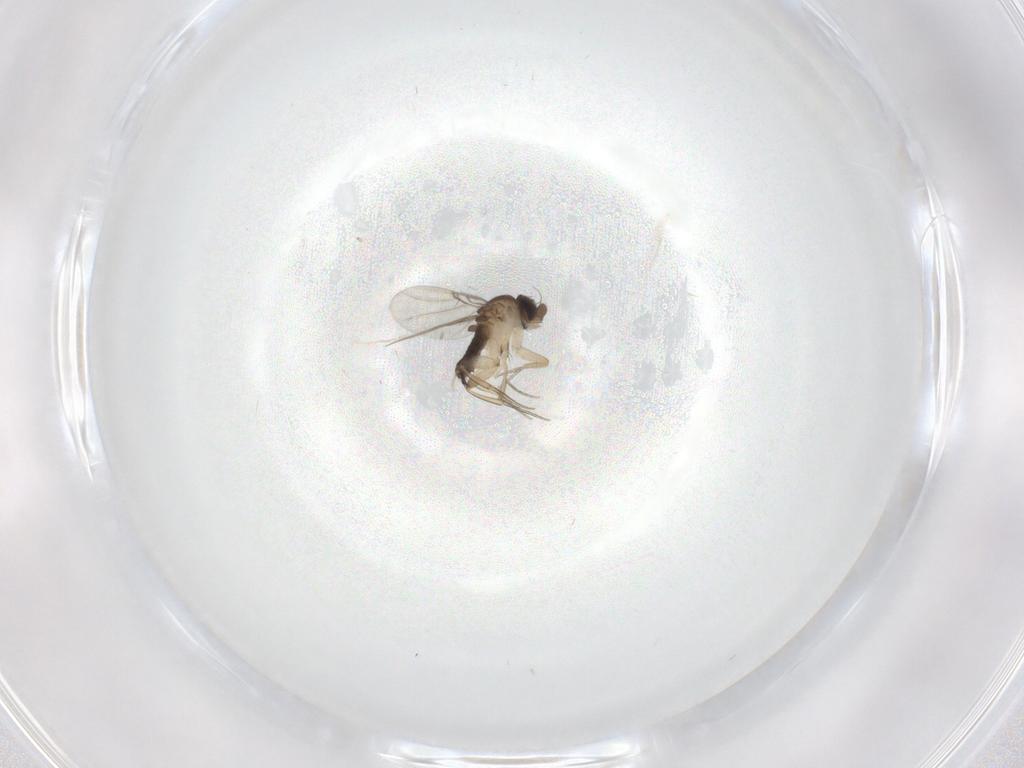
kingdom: Animalia
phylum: Arthropoda
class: Insecta
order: Diptera
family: Phoridae
